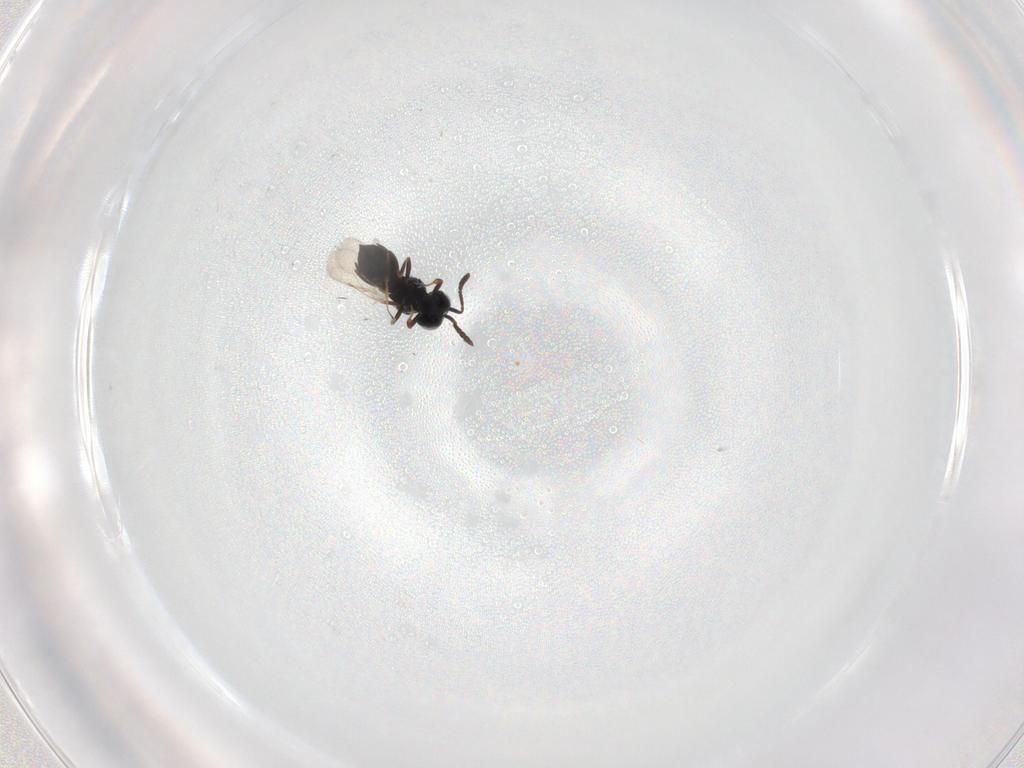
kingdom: Animalia
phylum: Arthropoda
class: Insecta
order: Hymenoptera
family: Scelionidae
